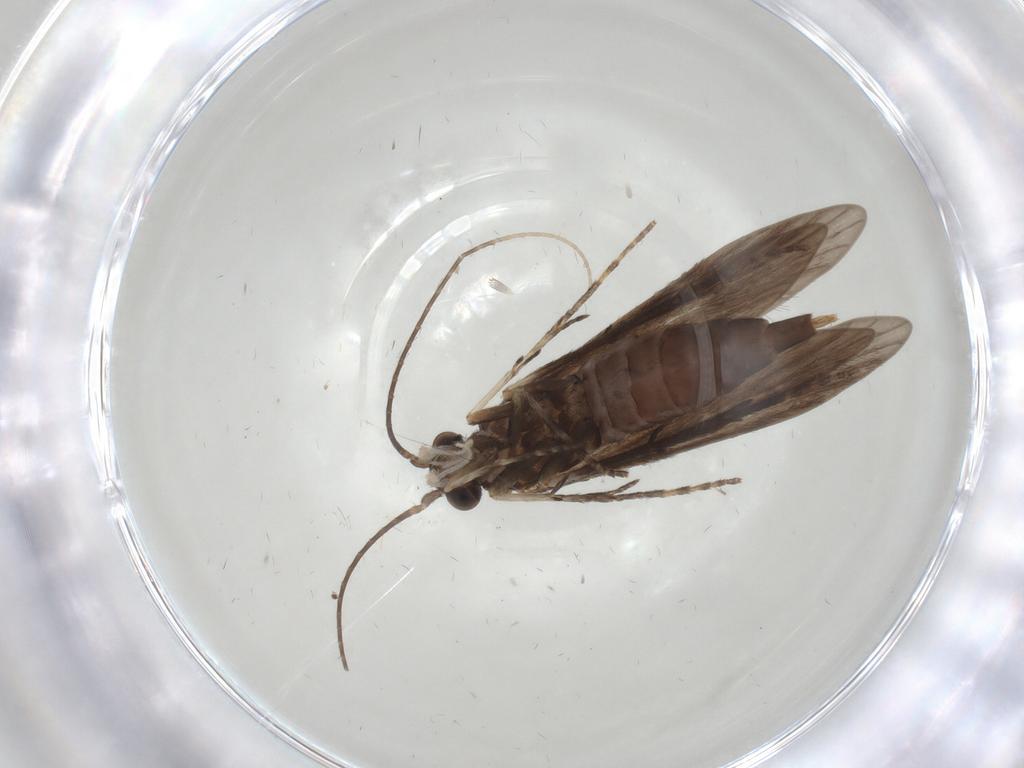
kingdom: Animalia
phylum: Arthropoda
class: Insecta
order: Trichoptera
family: Xiphocentronidae
